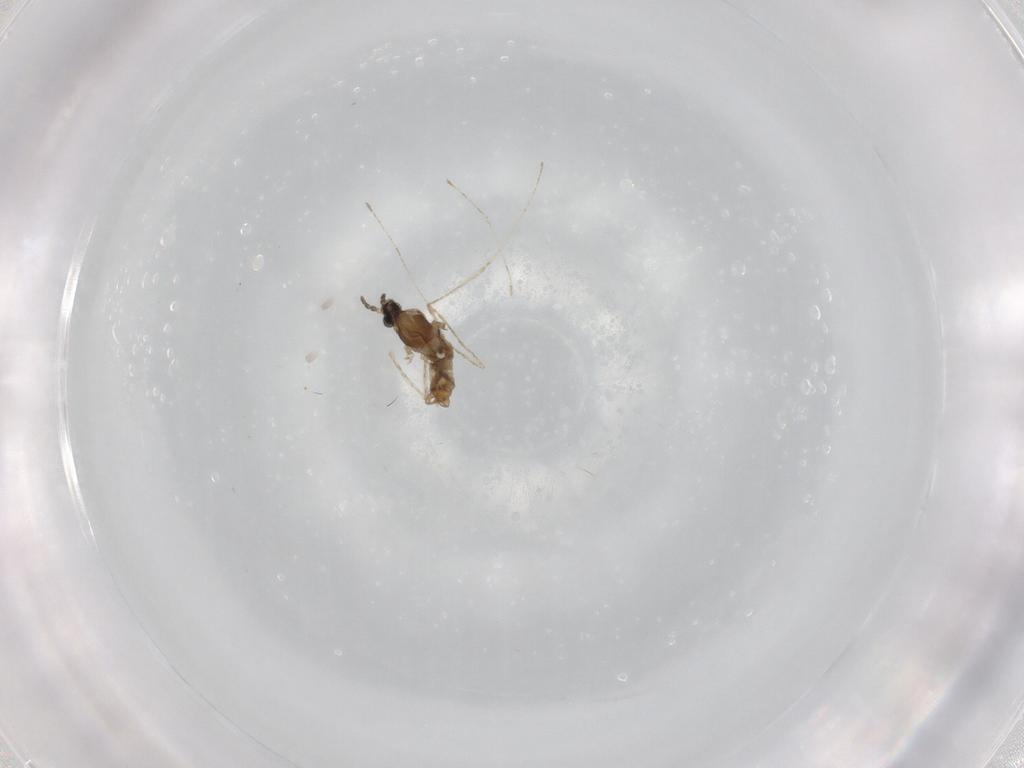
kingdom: Animalia
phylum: Arthropoda
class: Insecta
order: Diptera
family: Cecidomyiidae
